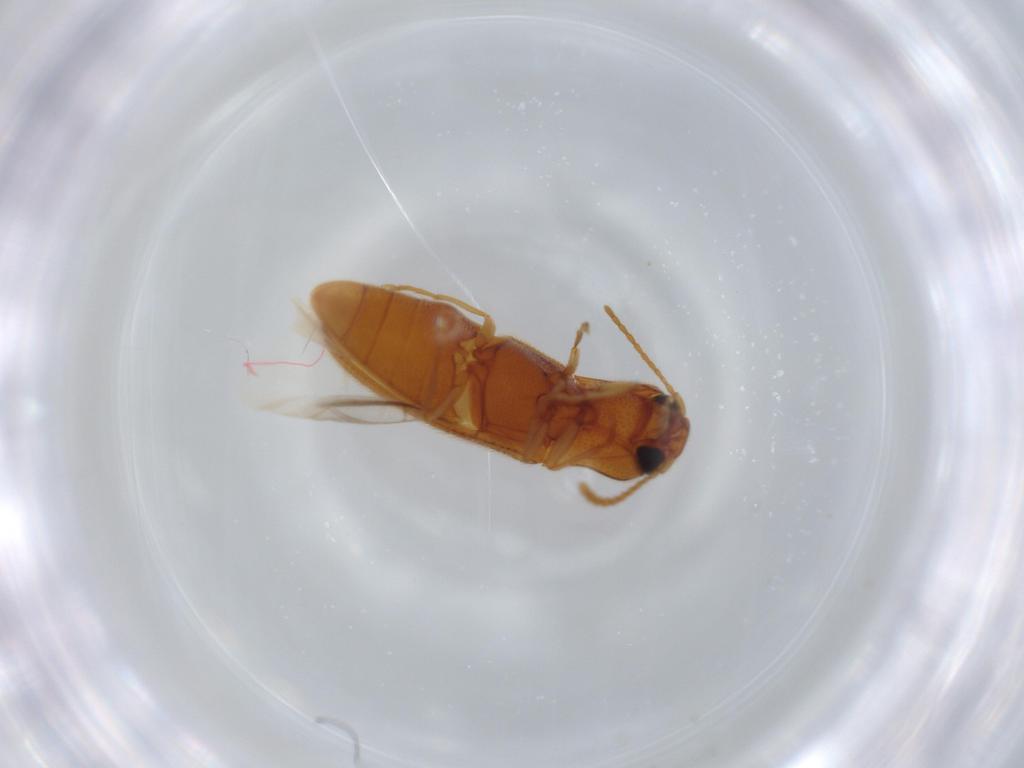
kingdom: Animalia
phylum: Arthropoda
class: Insecta
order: Coleoptera
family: Elateridae
